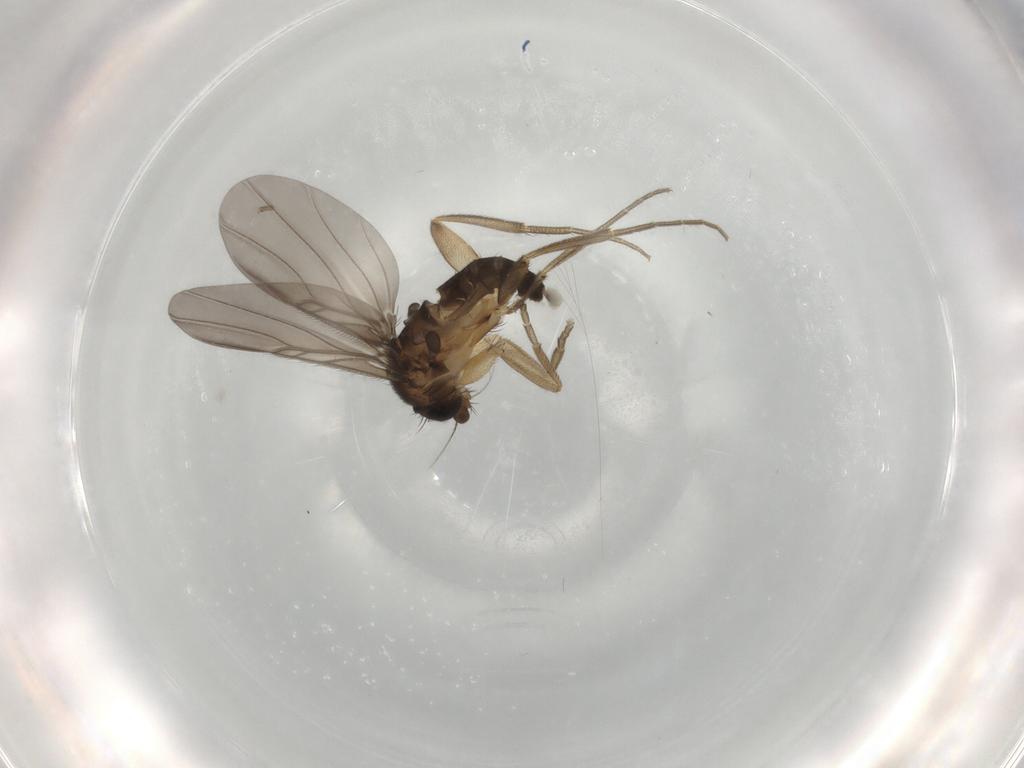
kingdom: Animalia
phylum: Arthropoda
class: Insecta
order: Diptera
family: Phoridae
